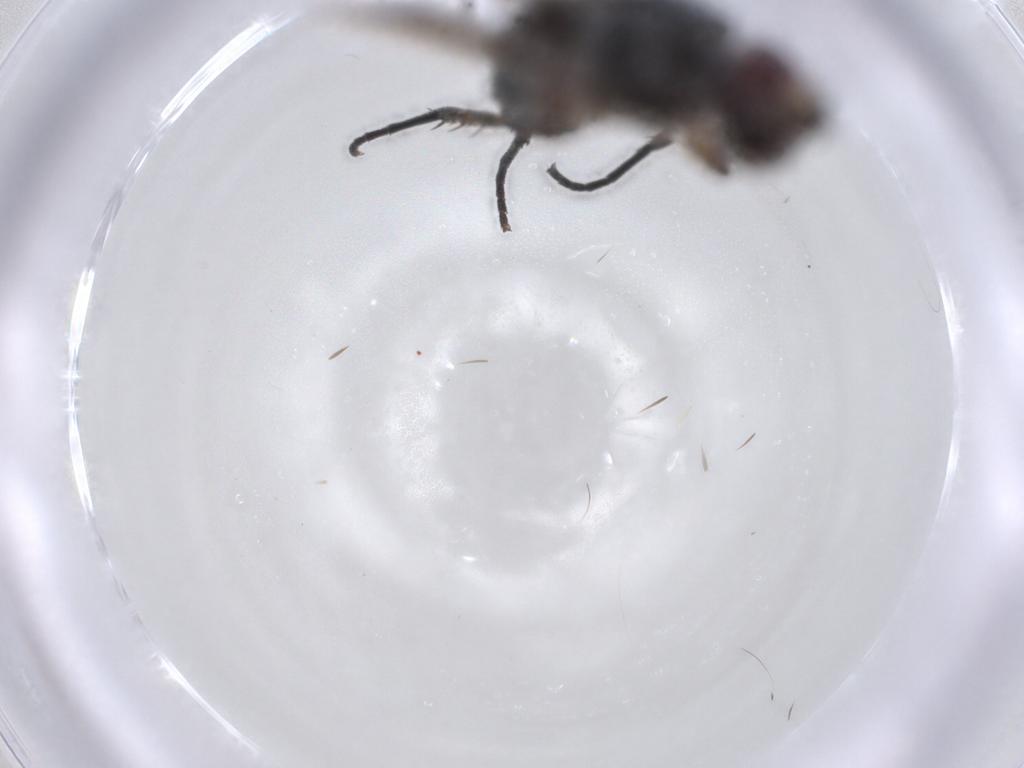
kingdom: Animalia
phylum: Arthropoda
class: Insecta
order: Diptera
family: Tachinidae
